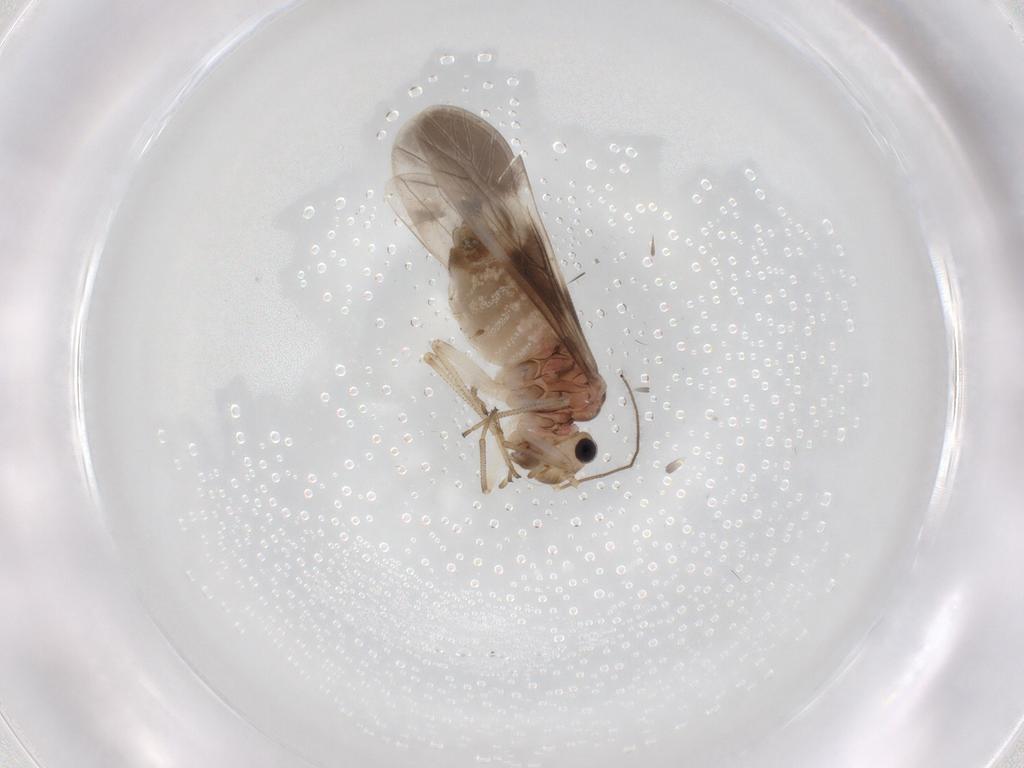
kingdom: Animalia
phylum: Arthropoda
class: Insecta
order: Psocodea
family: Caeciliusidae
